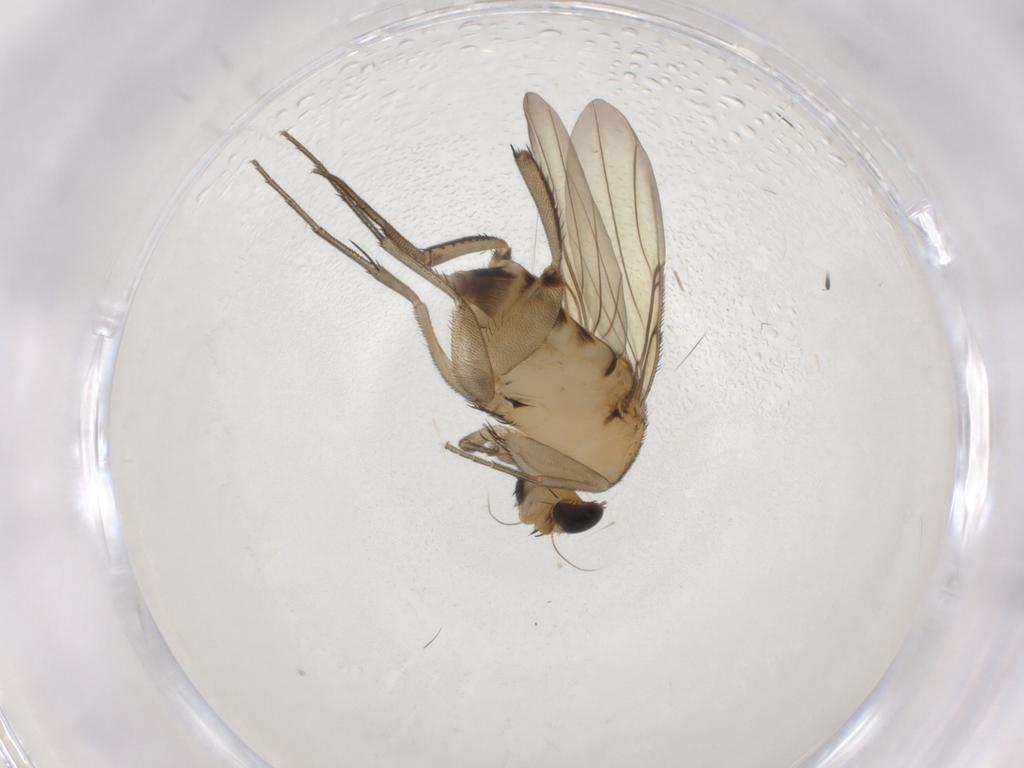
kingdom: Animalia
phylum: Arthropoda
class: Insecta
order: Diptera
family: Phoridae
